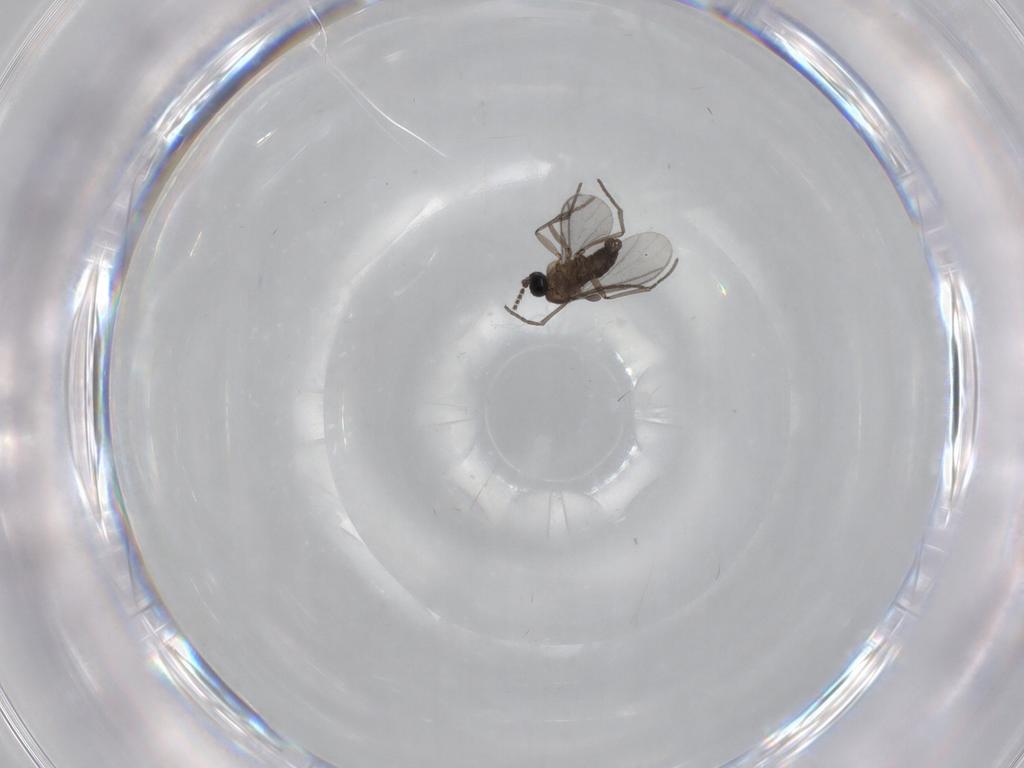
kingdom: Animalia
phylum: Arthropoda
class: Insecta
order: Diptera
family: Sciaridae
